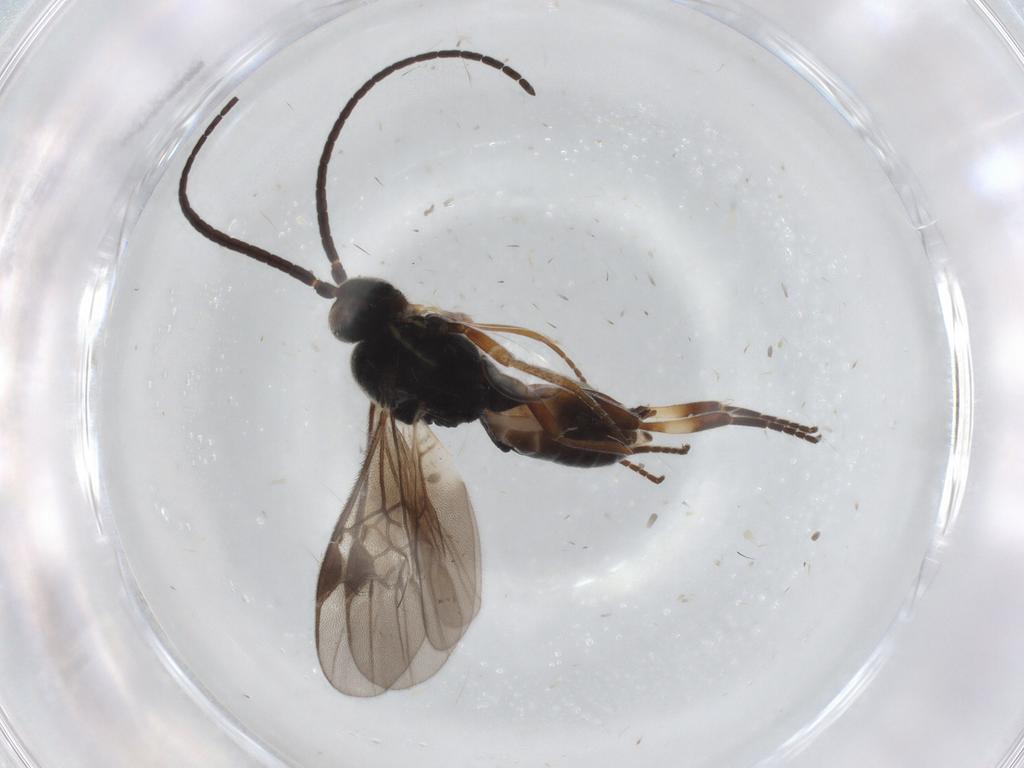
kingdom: Animalia
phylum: Arthropoda
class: Insecta
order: Hymenoptera
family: Braconidae
